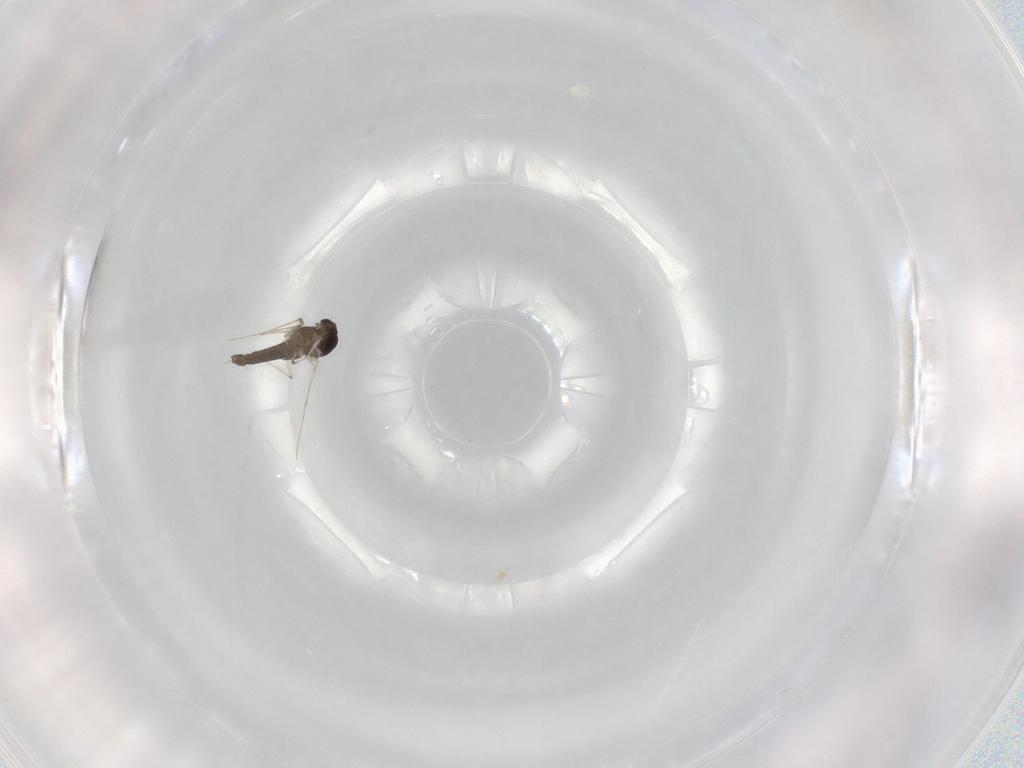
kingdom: Animalia
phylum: Arthropoda
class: Insecta
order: Diptera
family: Chironomidae
